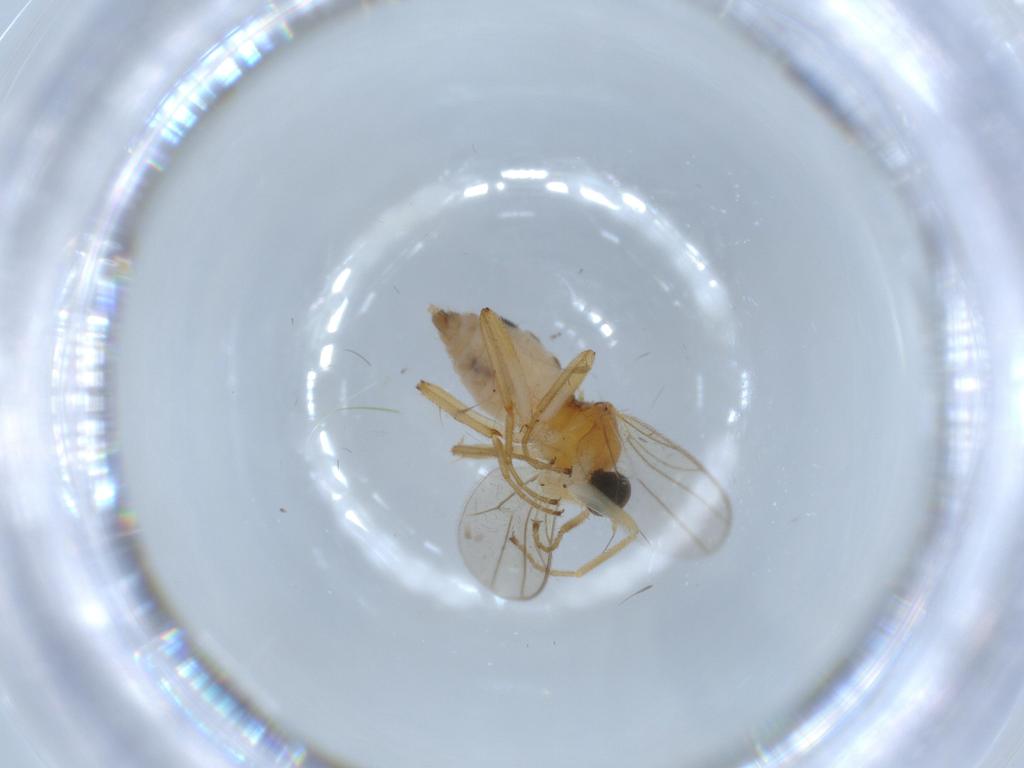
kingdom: Animalia
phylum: Arthropoda
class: Insecta
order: Diptera
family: Hybotidae
